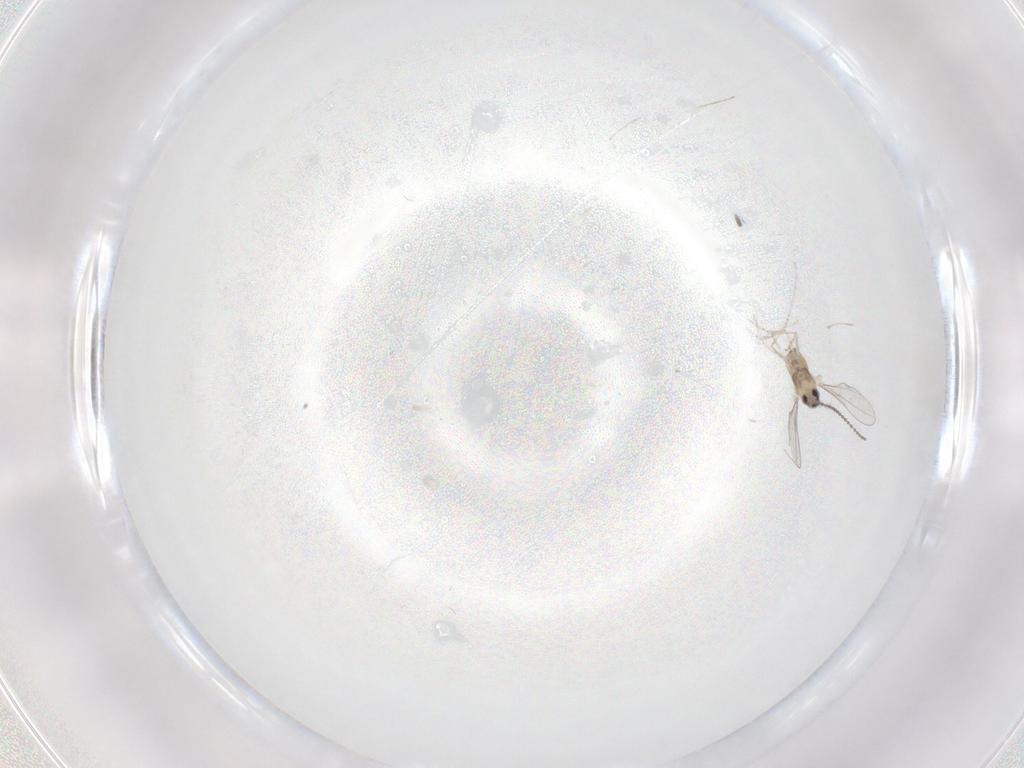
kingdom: Animalia
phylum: Arthropoda
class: Insecta
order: Diptera
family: Cecidomyiidae
